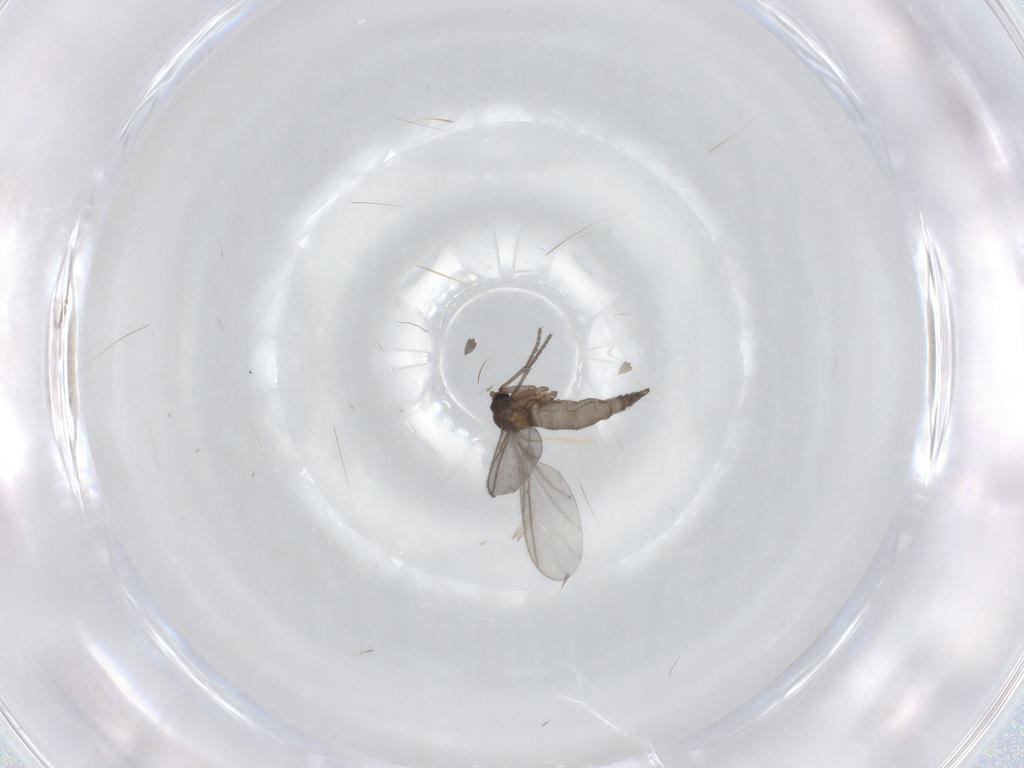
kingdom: Animalia
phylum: Arthropoda
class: Insecta
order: Diptera
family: Sciaridae
